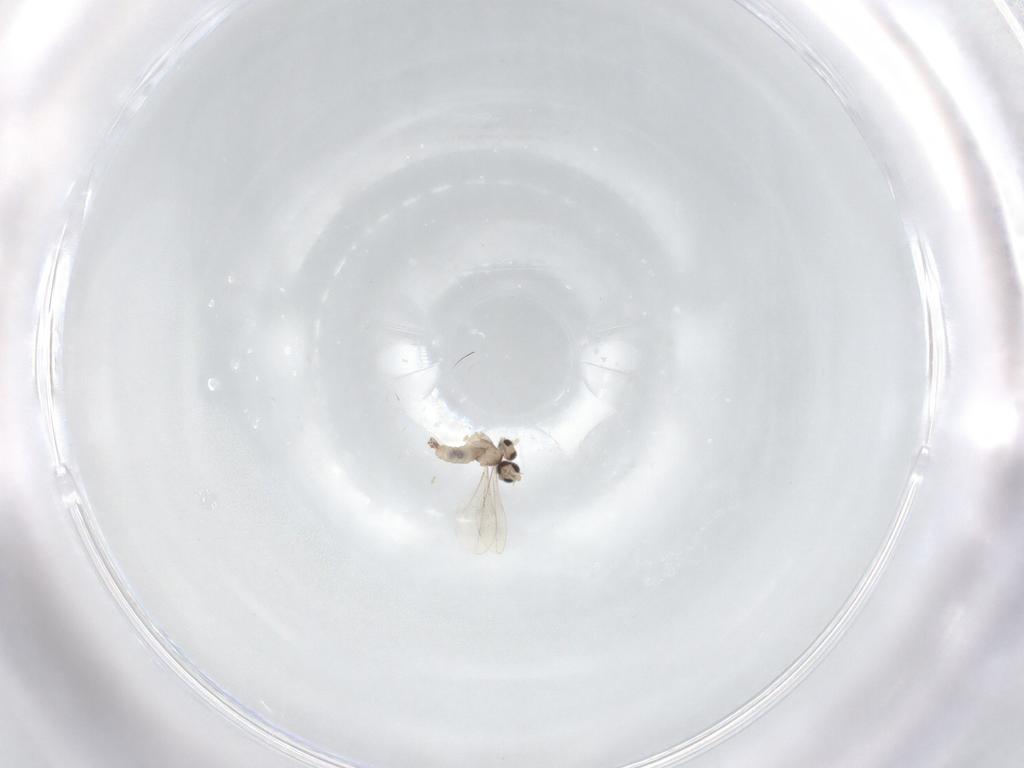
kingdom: Animalia
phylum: Arthropoda
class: Insecta
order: Diptera
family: Cecidomyiidae
